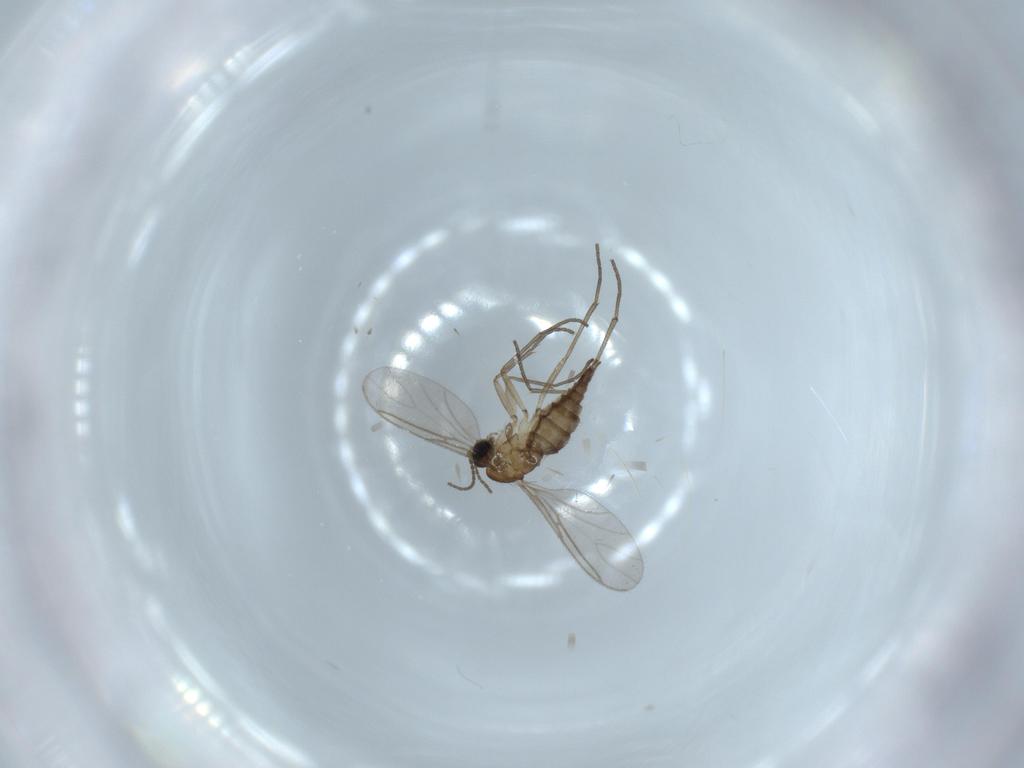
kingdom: Animalia
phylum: Arthropoda
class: Insecta
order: Diptera
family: Sciaridae
